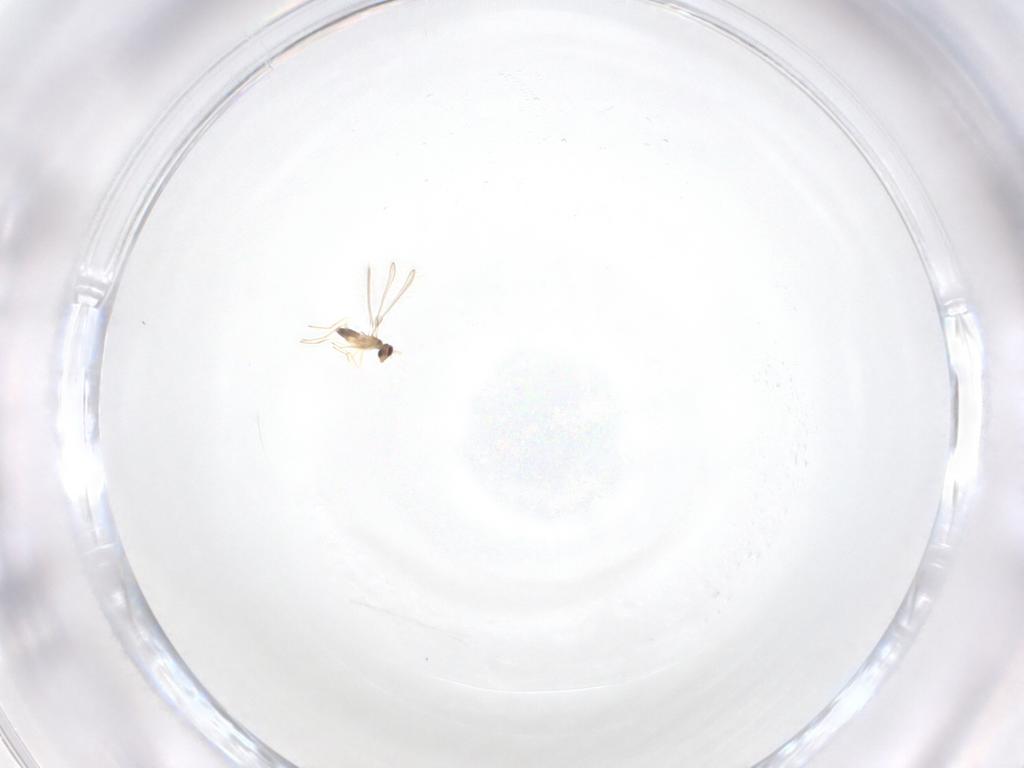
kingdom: Animalia
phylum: Arthropoda
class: Insecta
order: Hymenoptera
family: Mymaridae
